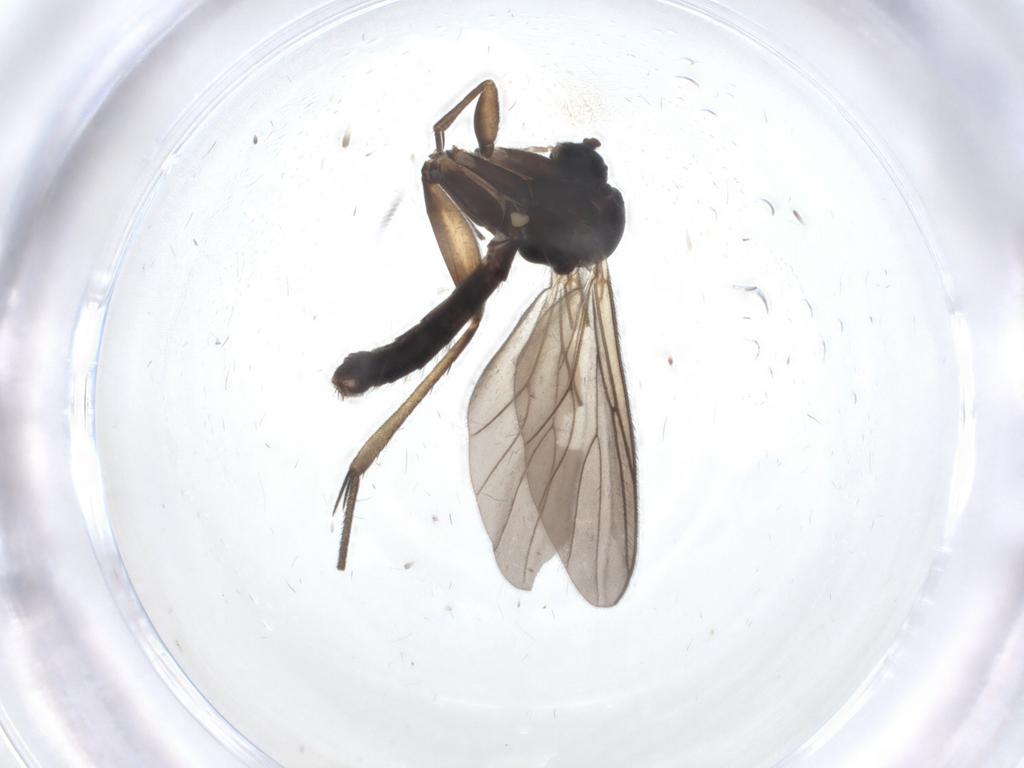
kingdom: Animalia
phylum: Arthropoda
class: Insecta
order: Diptera
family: Mycetophilidae
